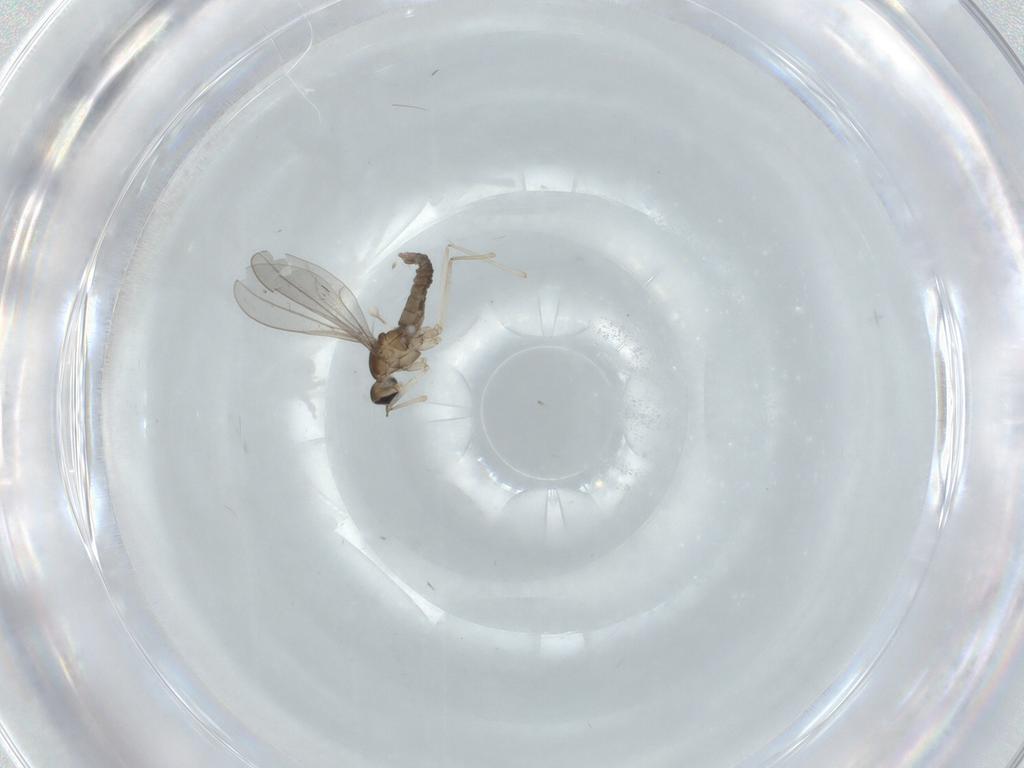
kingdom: Animalia
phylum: Arthropoda
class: Insecta
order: Diptera
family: Cecidomyiidae
